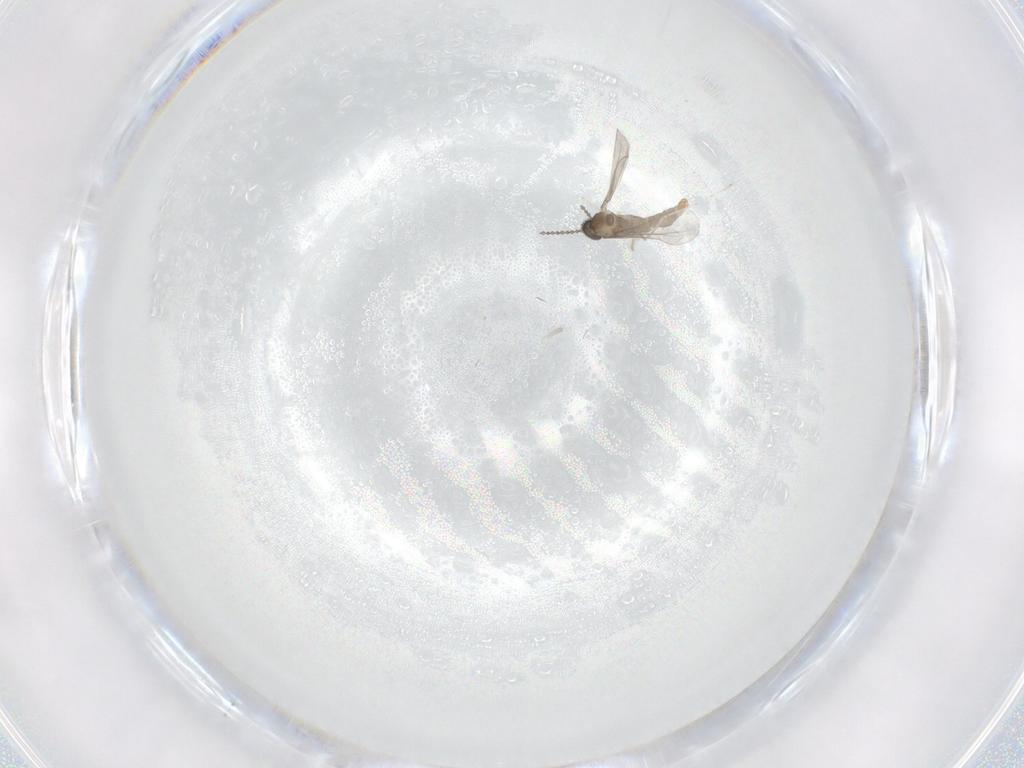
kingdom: Animalia
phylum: Arthropoda
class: Insecta
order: Diptera
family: Cecidomyiidae
